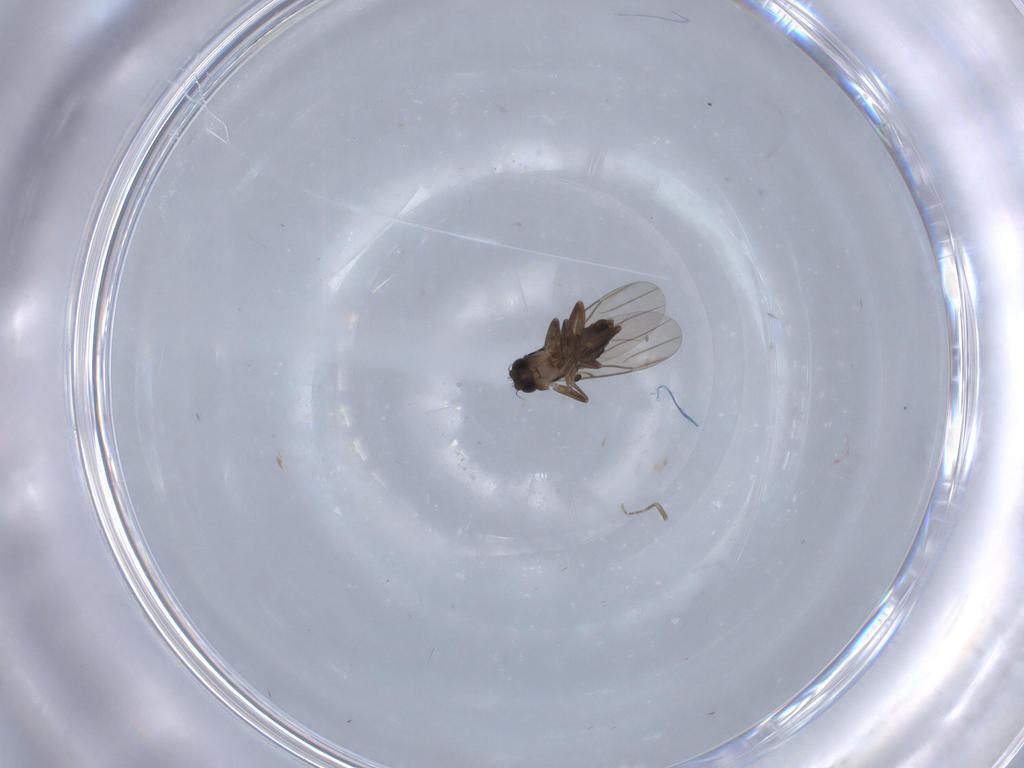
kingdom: Animalia
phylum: Arthropoda
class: Insecta
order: Diptera
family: Phoridae
